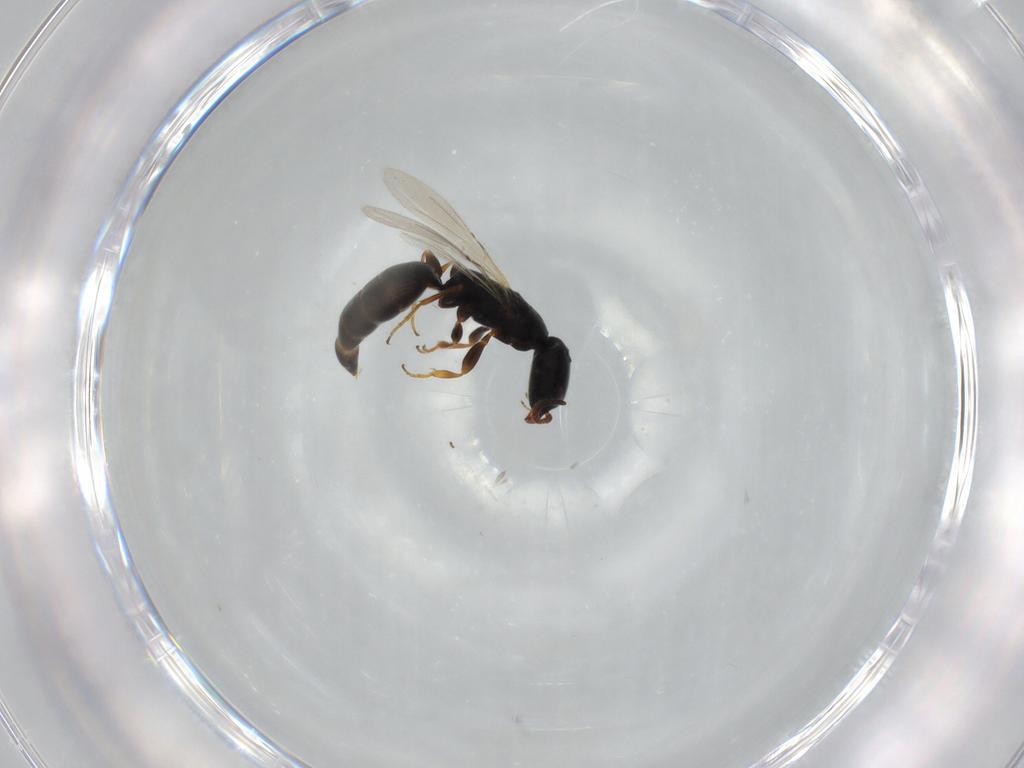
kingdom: Animalia
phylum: Arthropoda
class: Insecta
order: Hymenoptera
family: Bethylidae
